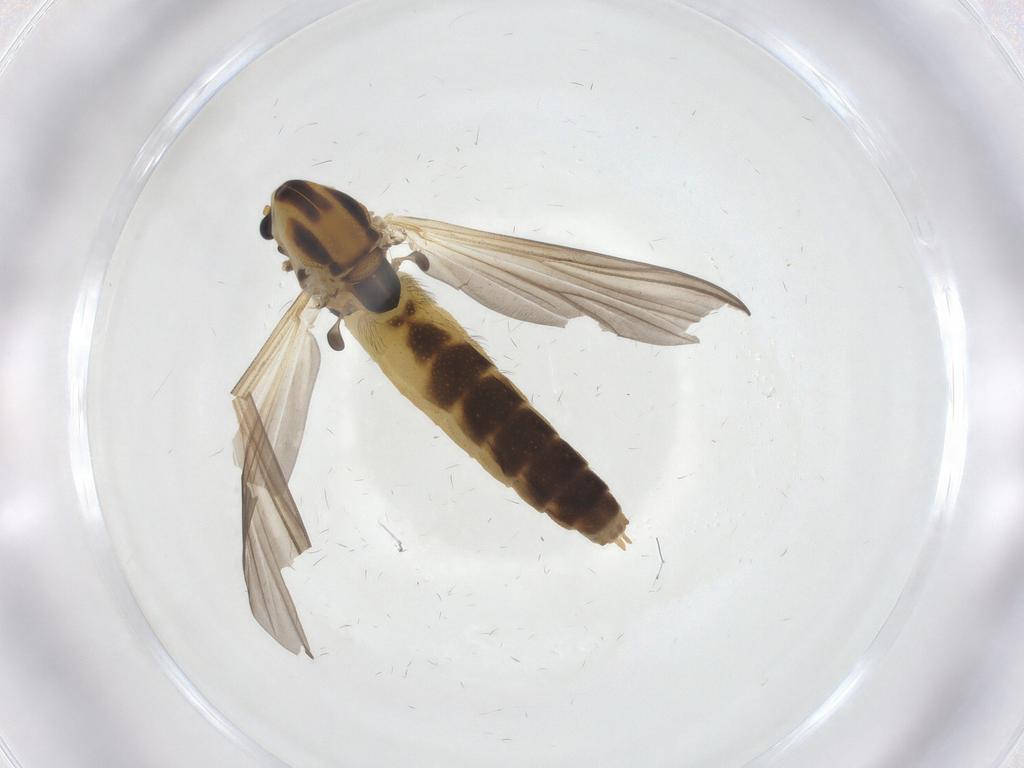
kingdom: Animalia
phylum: Arthropoda
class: Insecta
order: Diptera
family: Chironomidae
